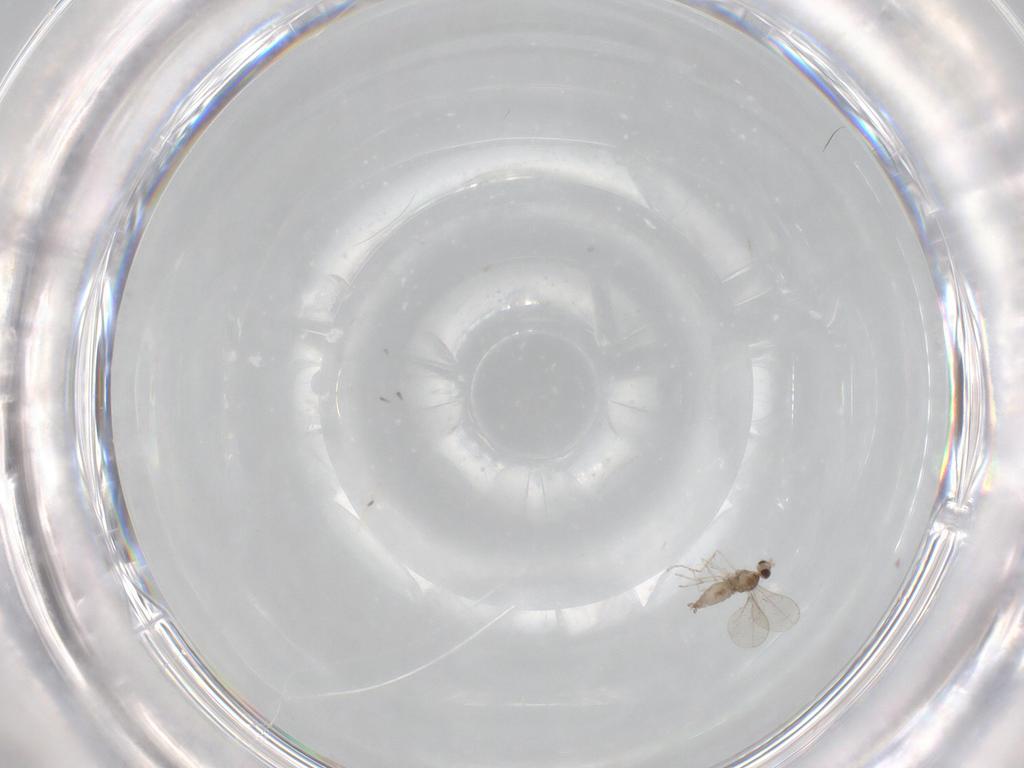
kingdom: Animalia
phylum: Arthropoda
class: Insecta
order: Diptera
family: Cecidomyiidae
